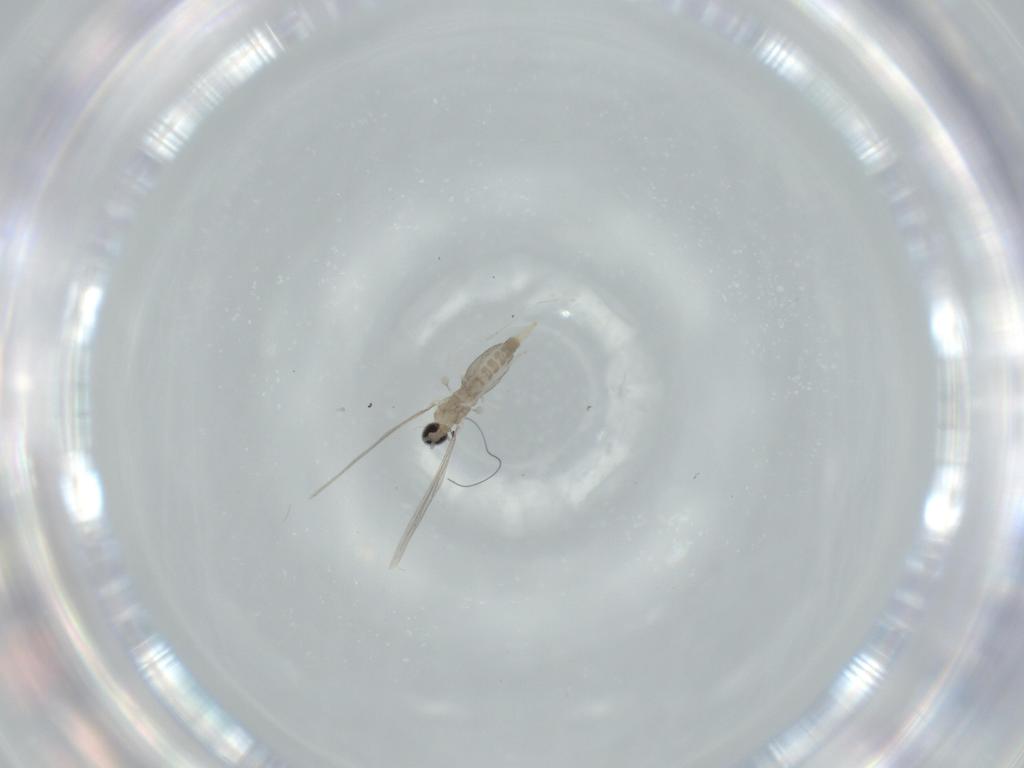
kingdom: Animalia
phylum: Arthropoda
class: Insecta
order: Diptera
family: Cecidomyiidae
